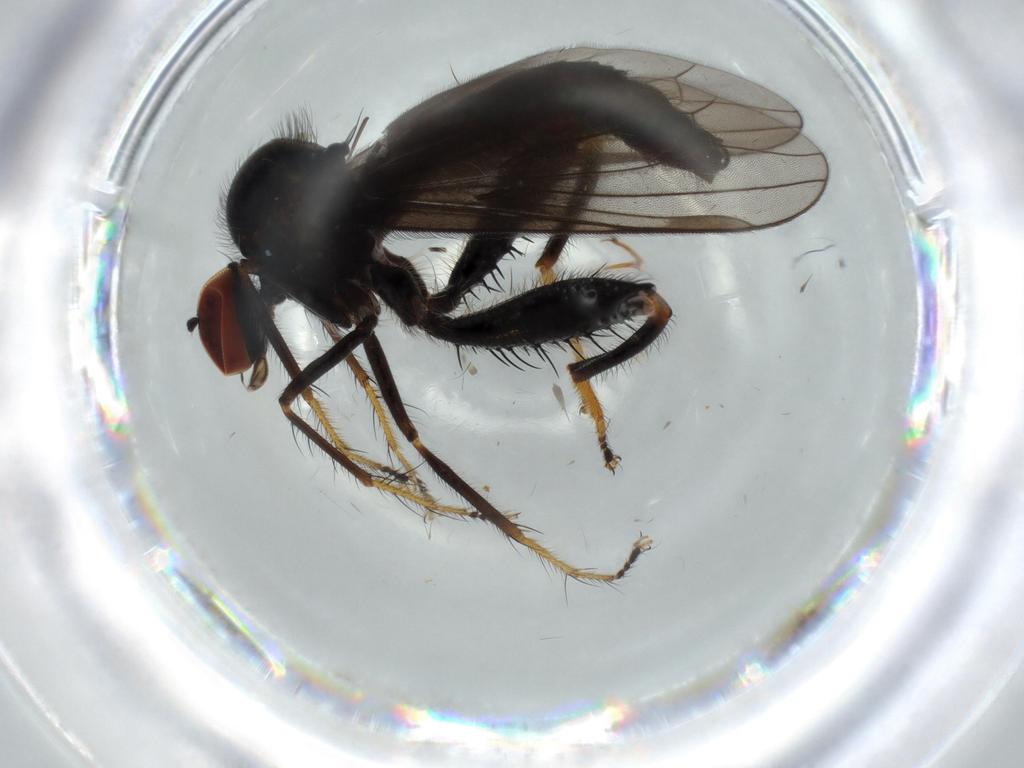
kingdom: Animalia
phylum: Arthropoda
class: Insecta
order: Diptera
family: Hybotidae
